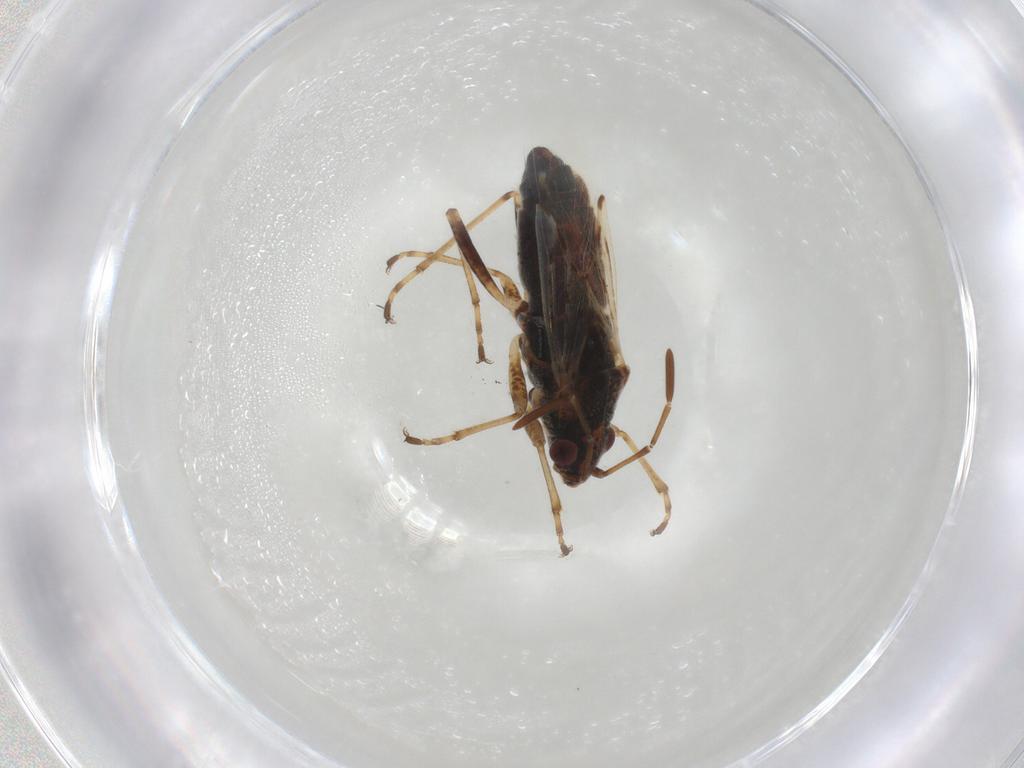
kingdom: Animalia
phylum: Arthropoda
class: Insecta
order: Hemiptera
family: Lygaeidae
